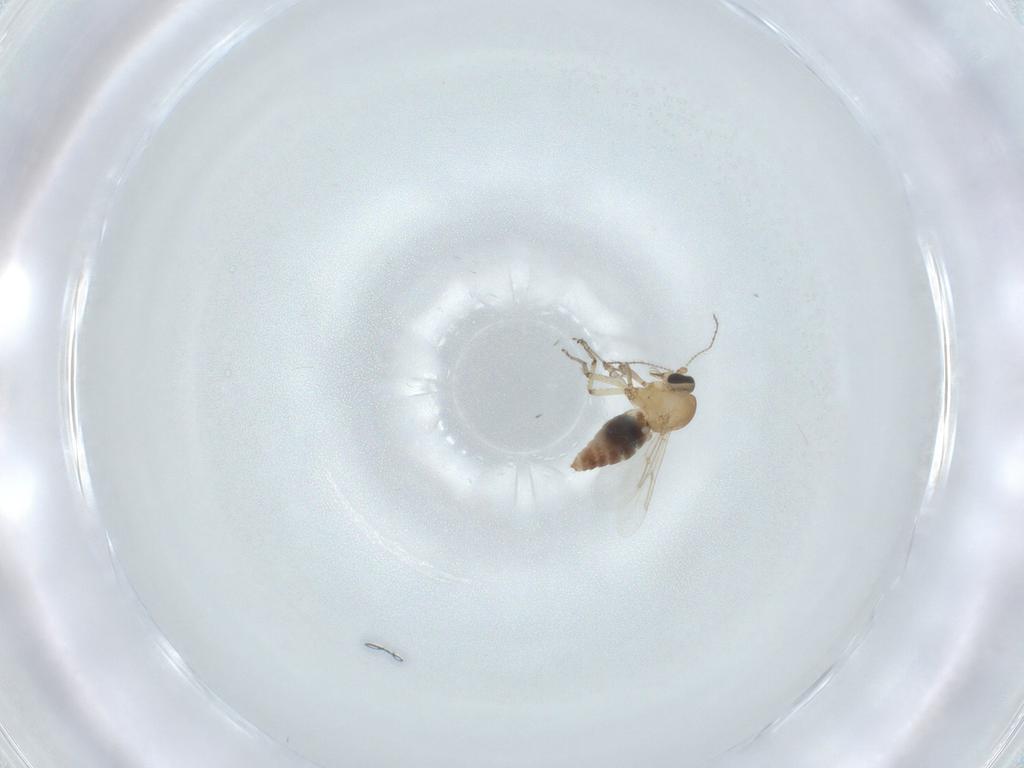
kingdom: Animalia
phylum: Arthropoda
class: Insecta
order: Diptera
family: Ceratopogonidae
